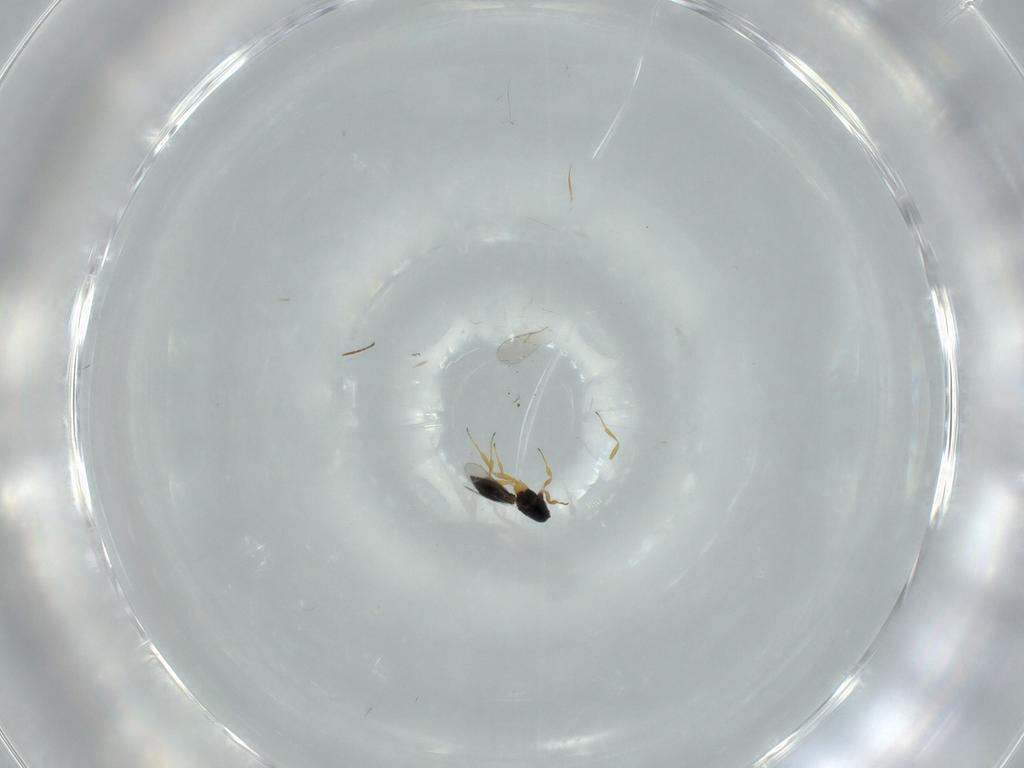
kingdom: Animalia
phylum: Arthropoda
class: Insecta
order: Hymenoptera
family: Scelionidae
